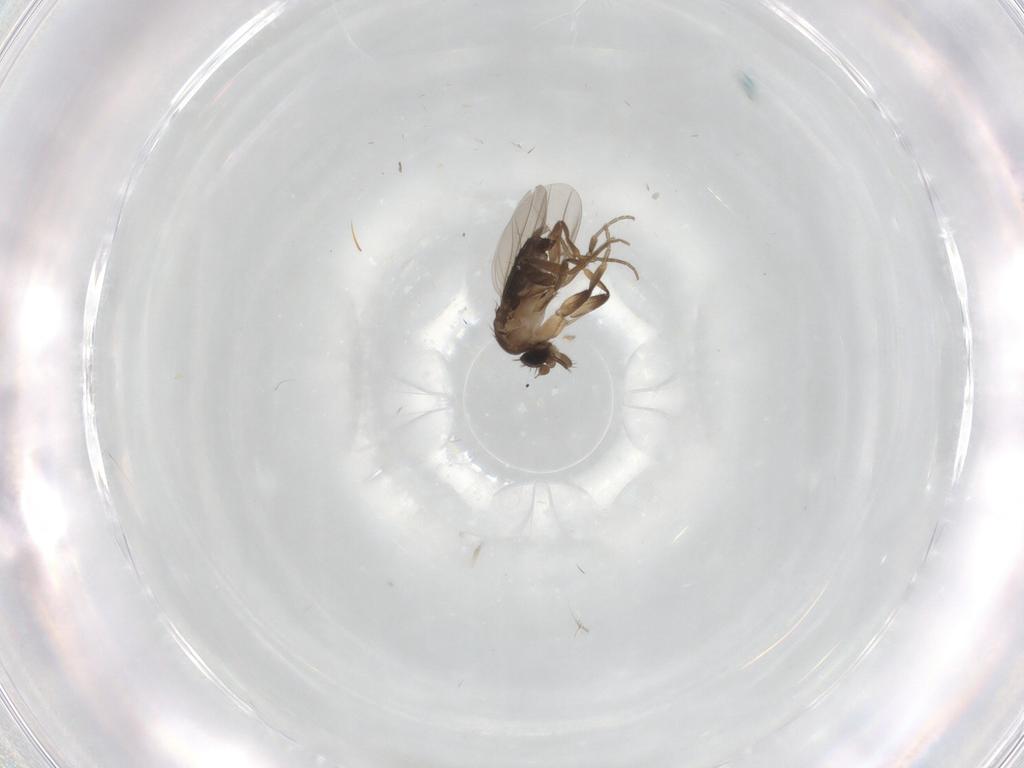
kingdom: Animalia
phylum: Arthropoda
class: Insecta
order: Diptera
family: Phoridae
